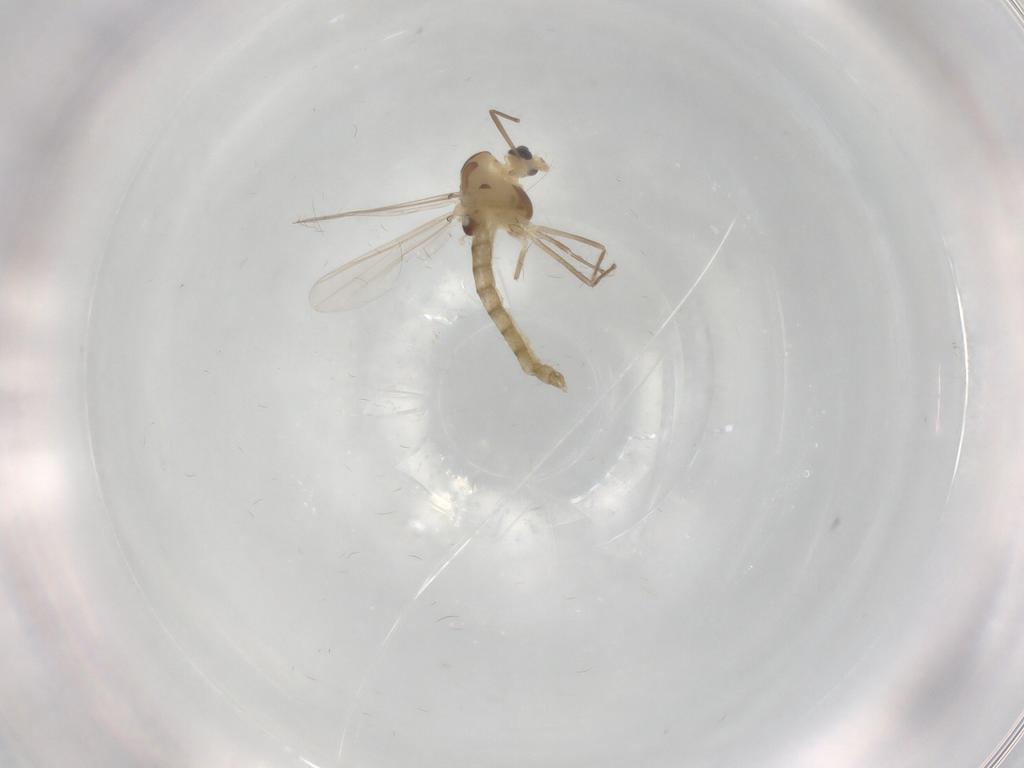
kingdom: Animalia
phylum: Arthropoda
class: Insecta
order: Diptera
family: Chironomidae
